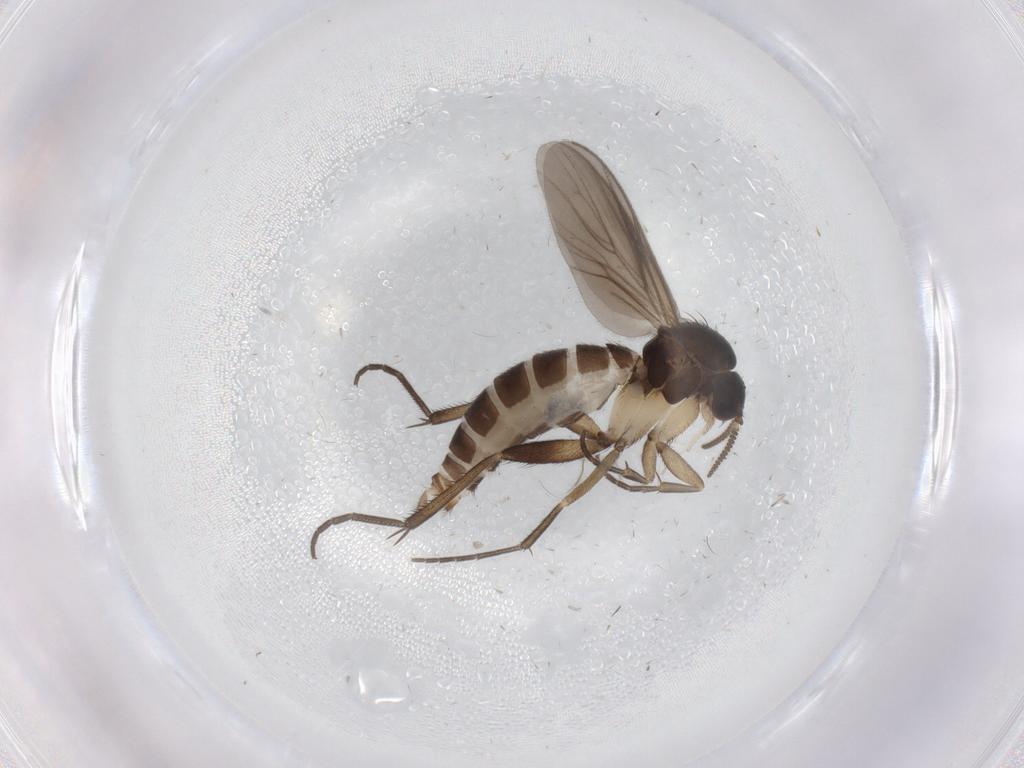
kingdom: Animalia
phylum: Arthropoda
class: Insecta
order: Diptera
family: Mycetophilidae
